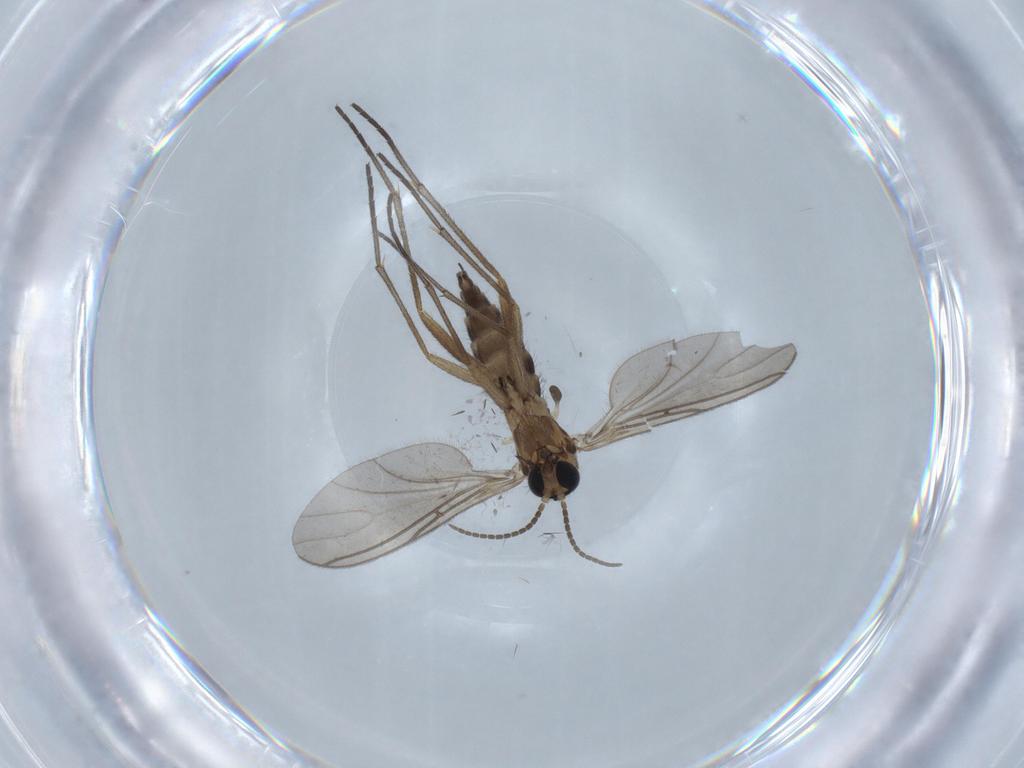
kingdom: Animalia
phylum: Arthropoda
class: Insecta
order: Diptera
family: Sciaridae
